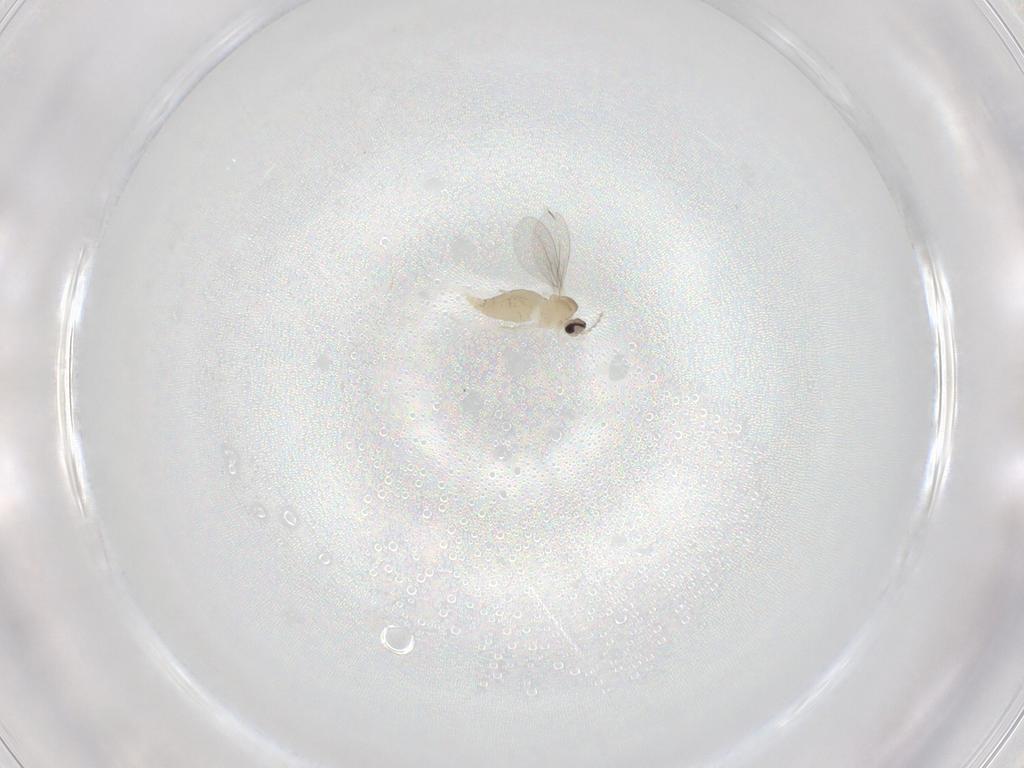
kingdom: Animalia
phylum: Arthropoda
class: Insecta
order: Diptera
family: Cecidomyiidae
